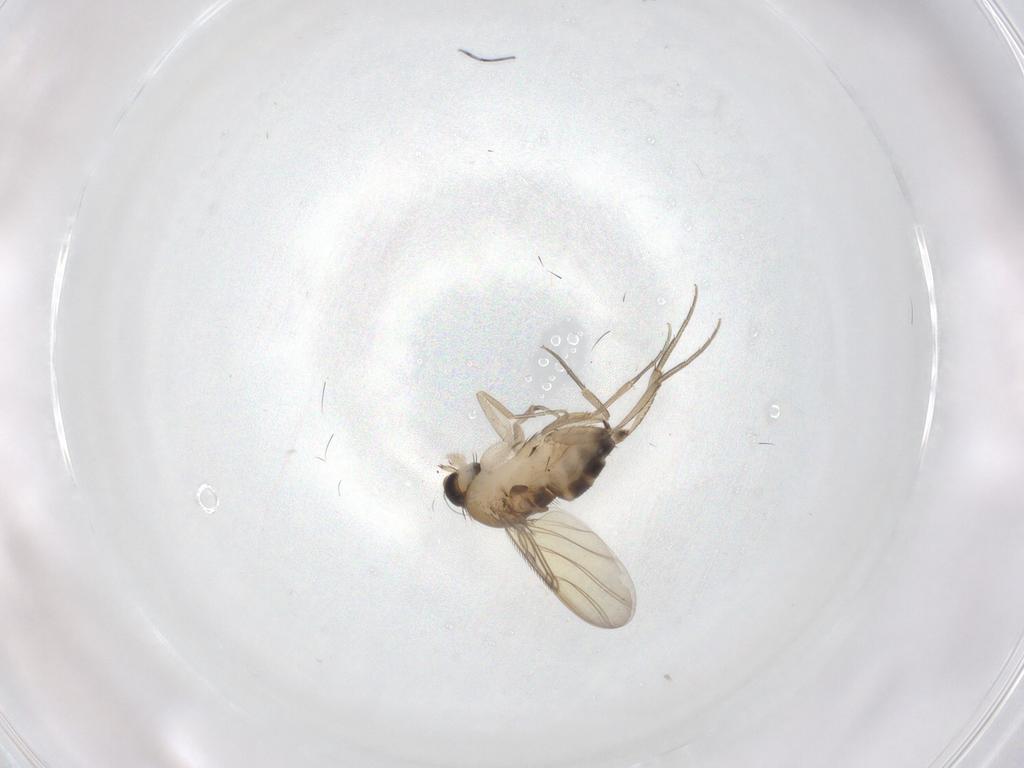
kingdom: Animalia
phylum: Arthropoda
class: Insecta
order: Diptera
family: Phoridae
